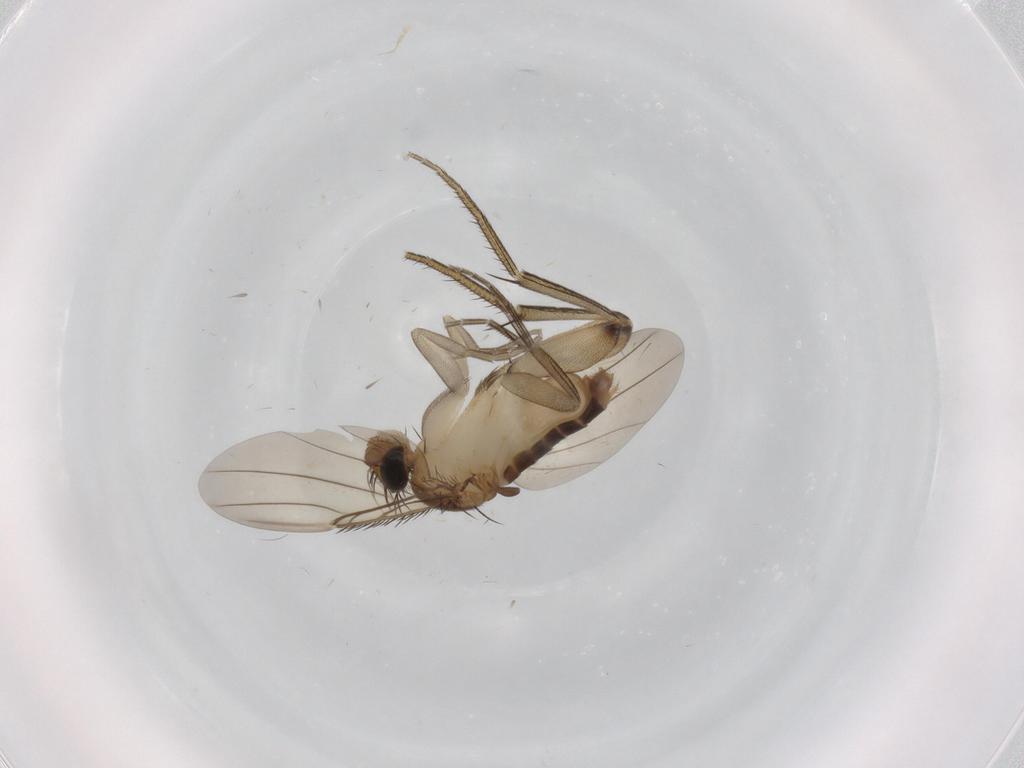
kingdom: Animalia
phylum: Arthropoda
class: Insecta
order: Diptera
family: Phoridae
